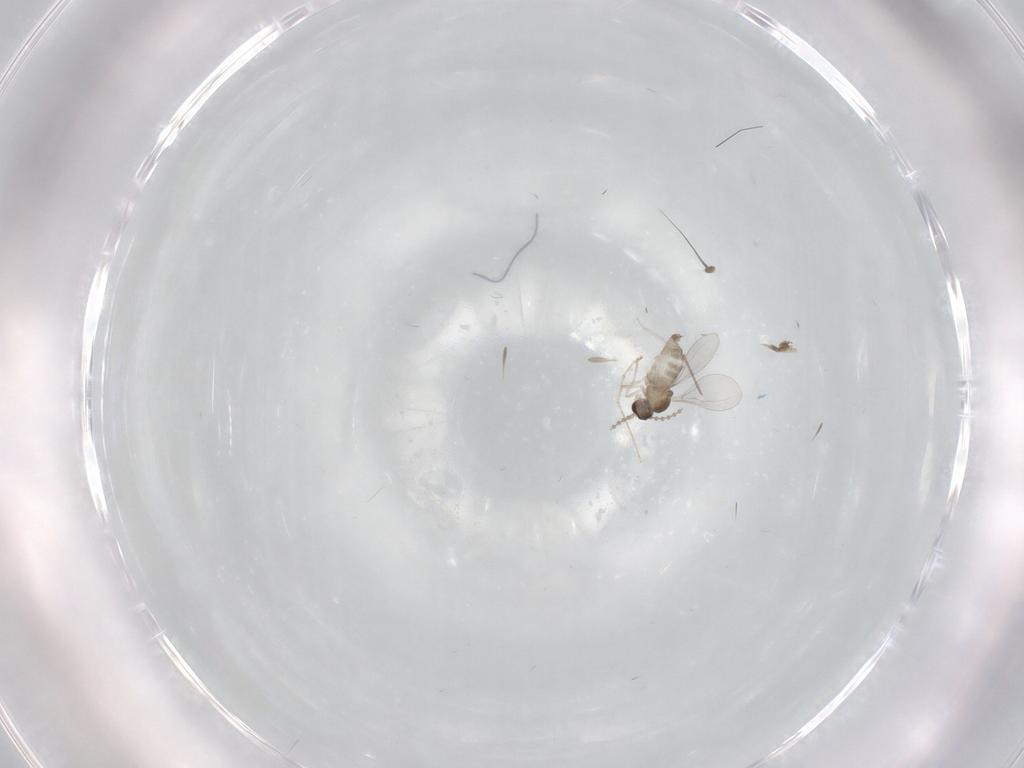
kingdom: Animalia
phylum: Arthropoda
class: Insecta
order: Diptera
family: Cecidomyiidae
